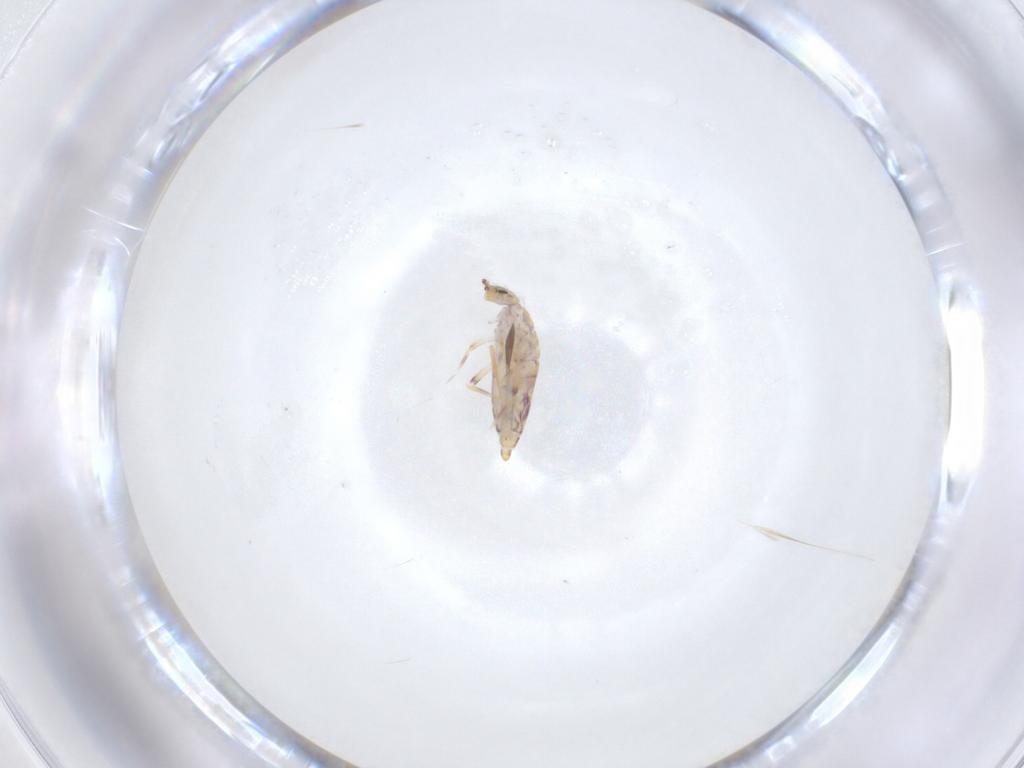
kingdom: Animalia
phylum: Arthropoda
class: Collembola
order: Entomobryomorpha
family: Entomobryidae
